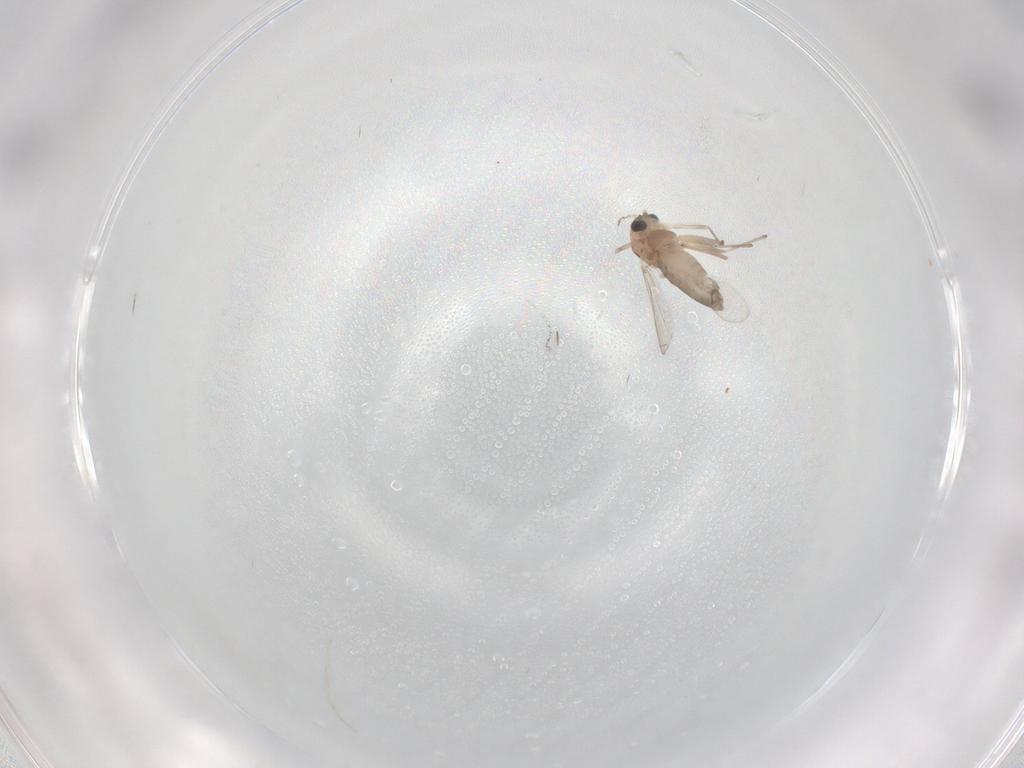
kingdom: Animalia
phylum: Arthropoda
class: Insecta
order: Diptera
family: Chironomidae
